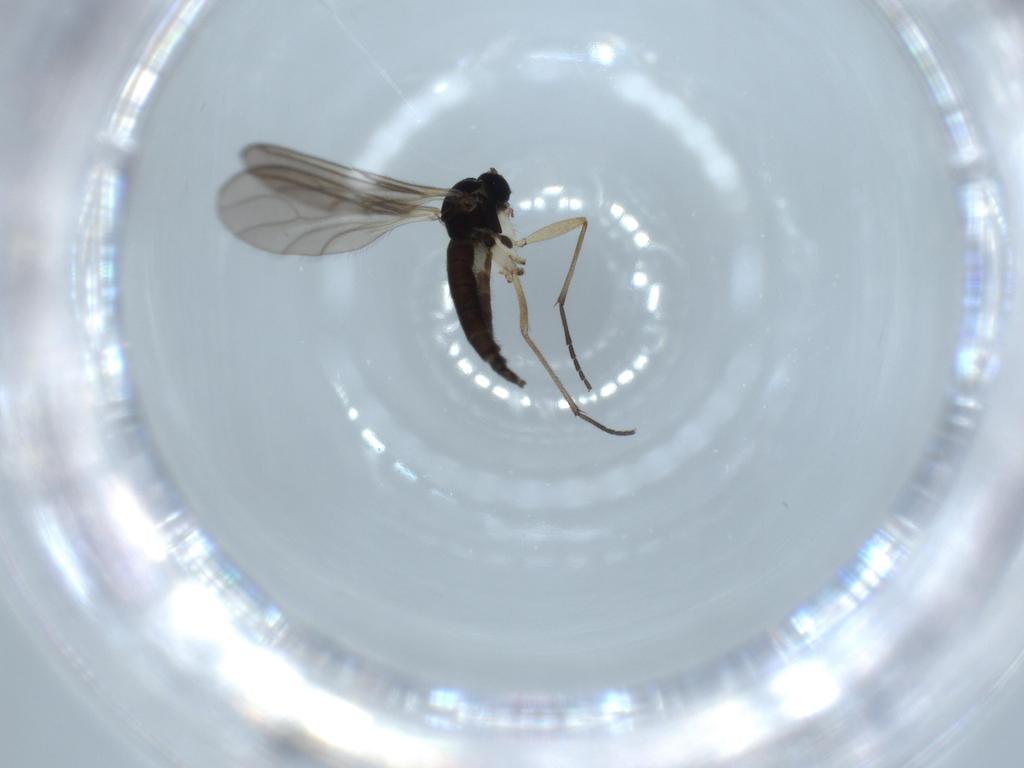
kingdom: Animalia
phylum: Arthropoda
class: Insecta
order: Diptera
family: Sciaridae
